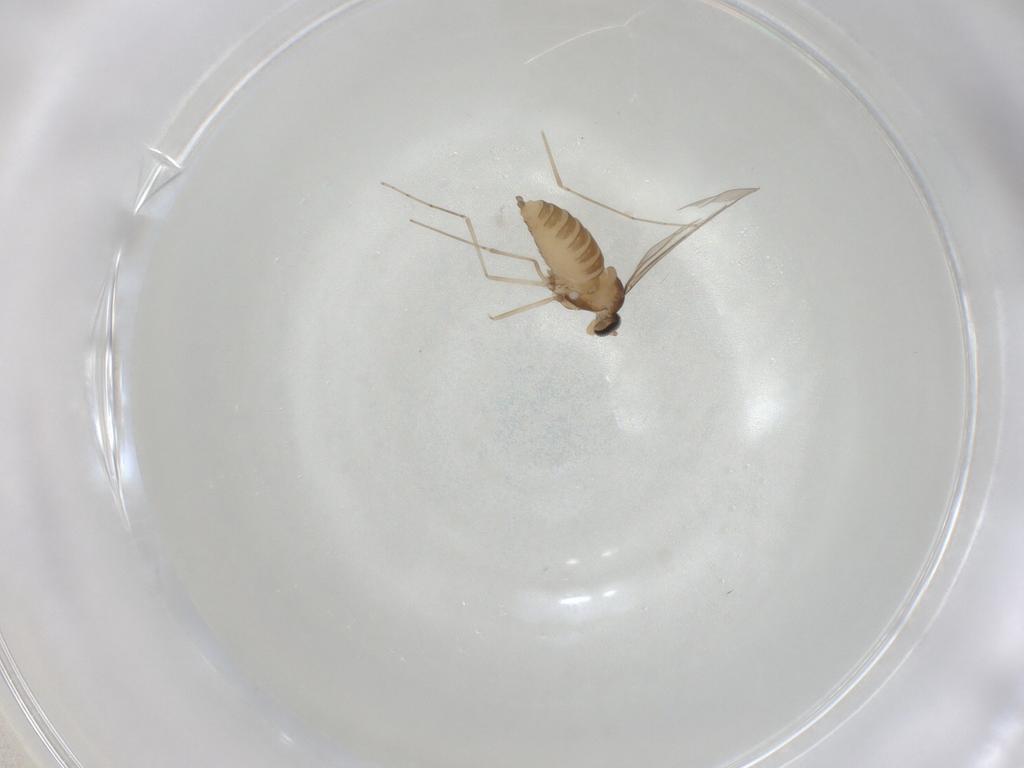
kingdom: Animalia
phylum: Arthropoda
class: Insecta
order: Diptera
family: Cecidomyiidae
